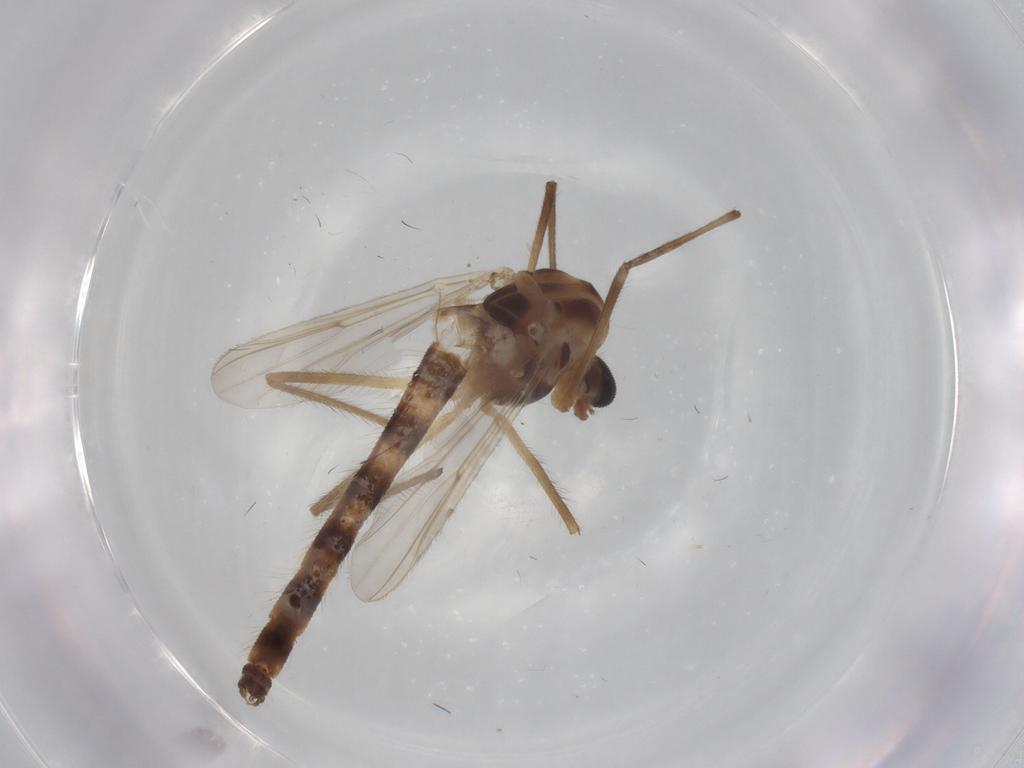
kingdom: Animalia
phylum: Arthropoda
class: Insecta
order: Diptera
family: Chironomidae
